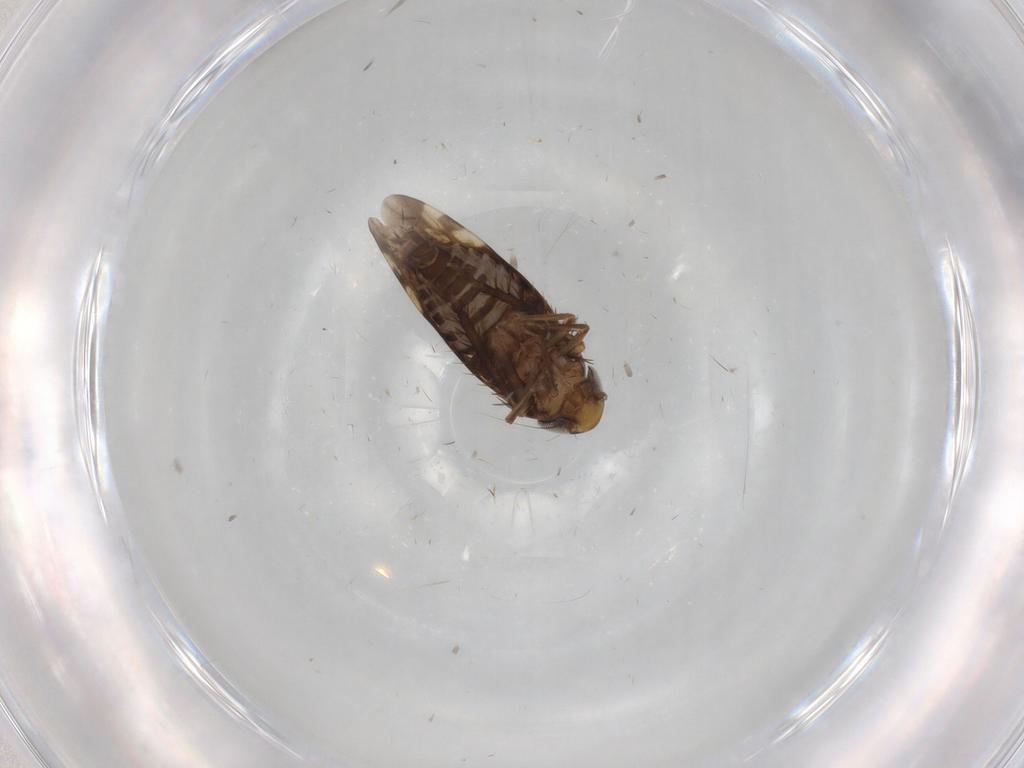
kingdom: Animalia
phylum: Arthropoda
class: Insecta
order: Hemiptera
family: Cicadellidae
